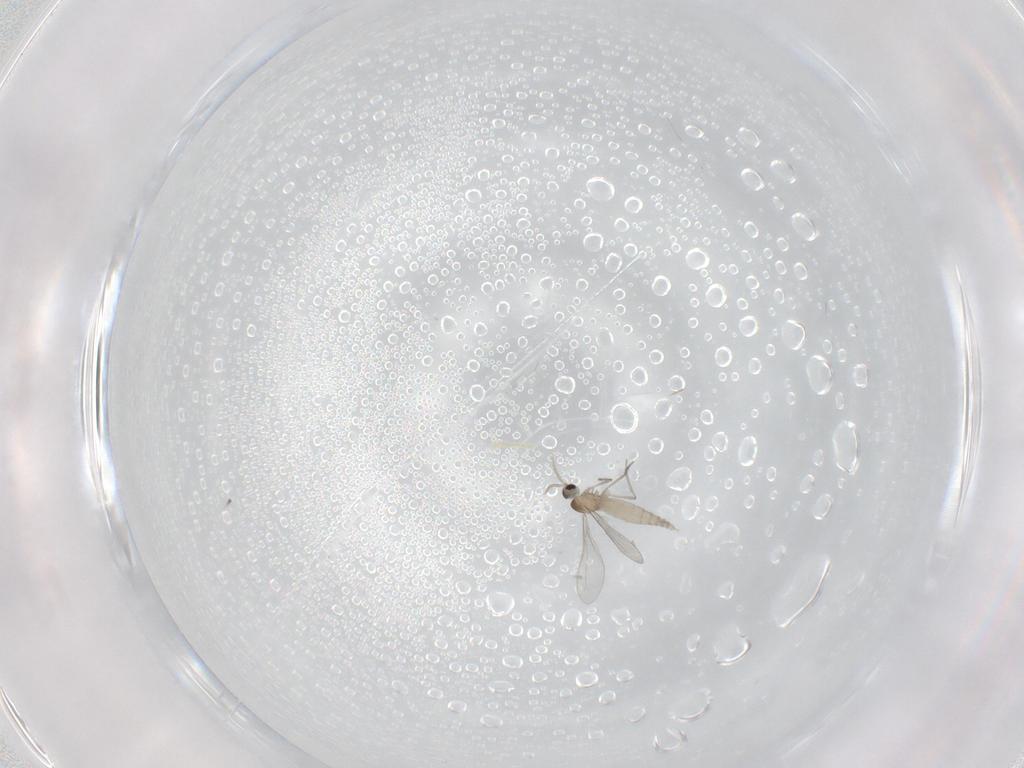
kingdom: Animalia
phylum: Arthropoda
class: Insecta
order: Diptera
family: Cecidomyiidae
